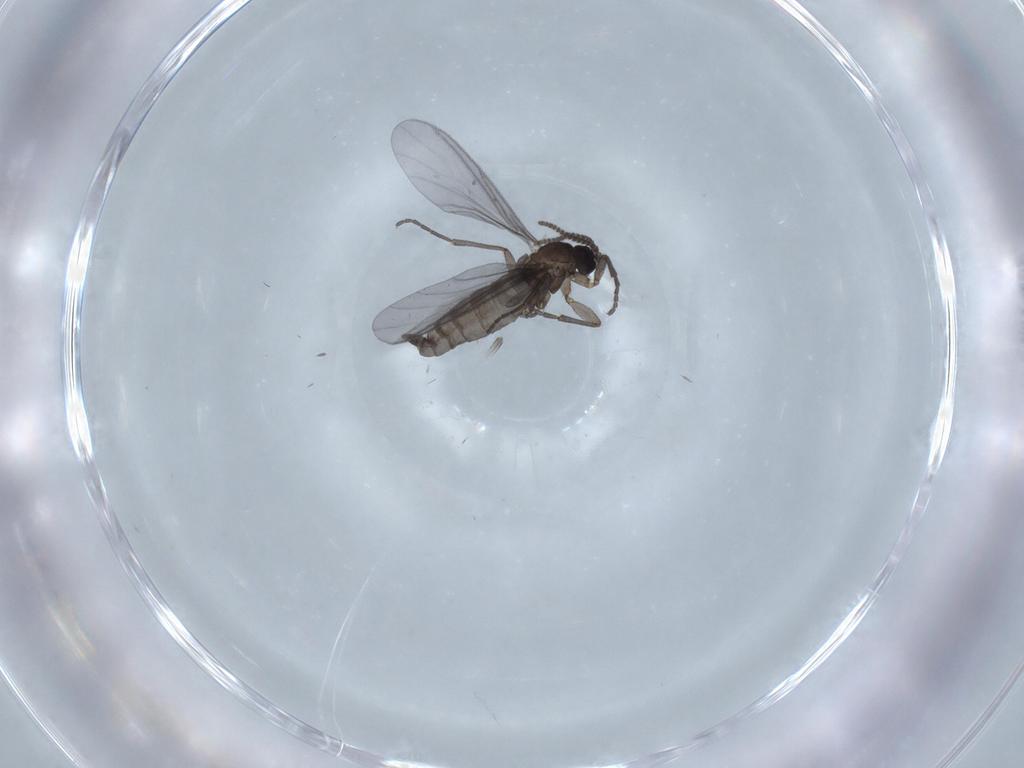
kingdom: Animalia
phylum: Arthropoda
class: Insecta
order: Diptera
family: Sciaridae
